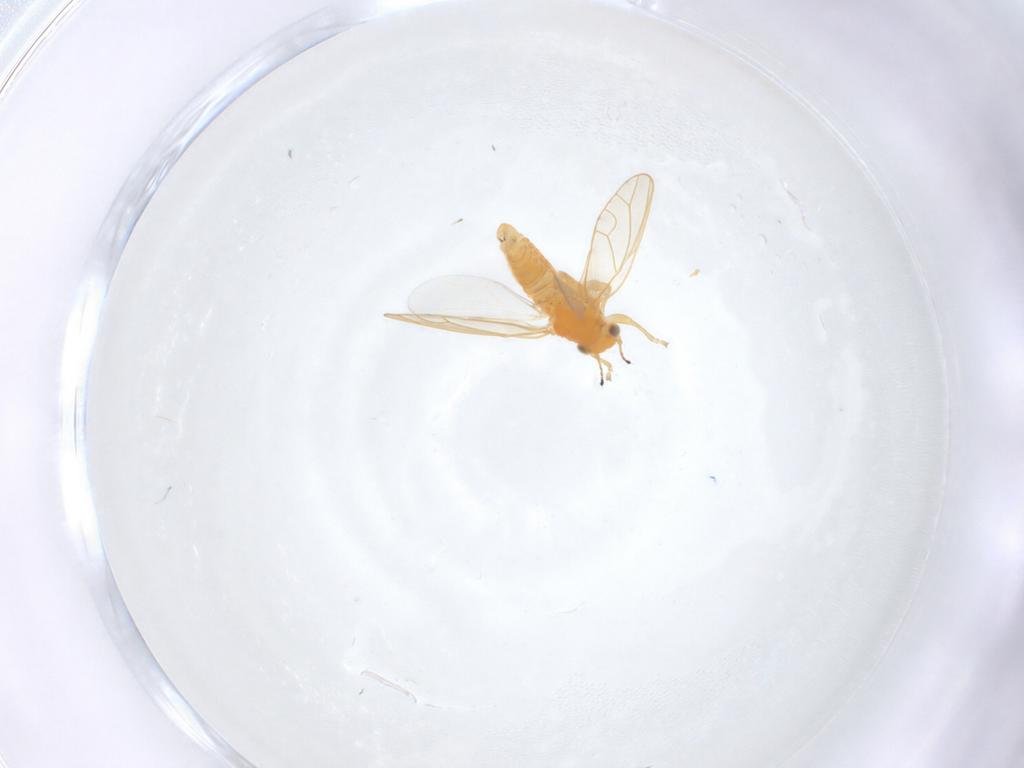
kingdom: Animalia
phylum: Arthropoda
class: Insecta
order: Hemiptera
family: Triozidae
